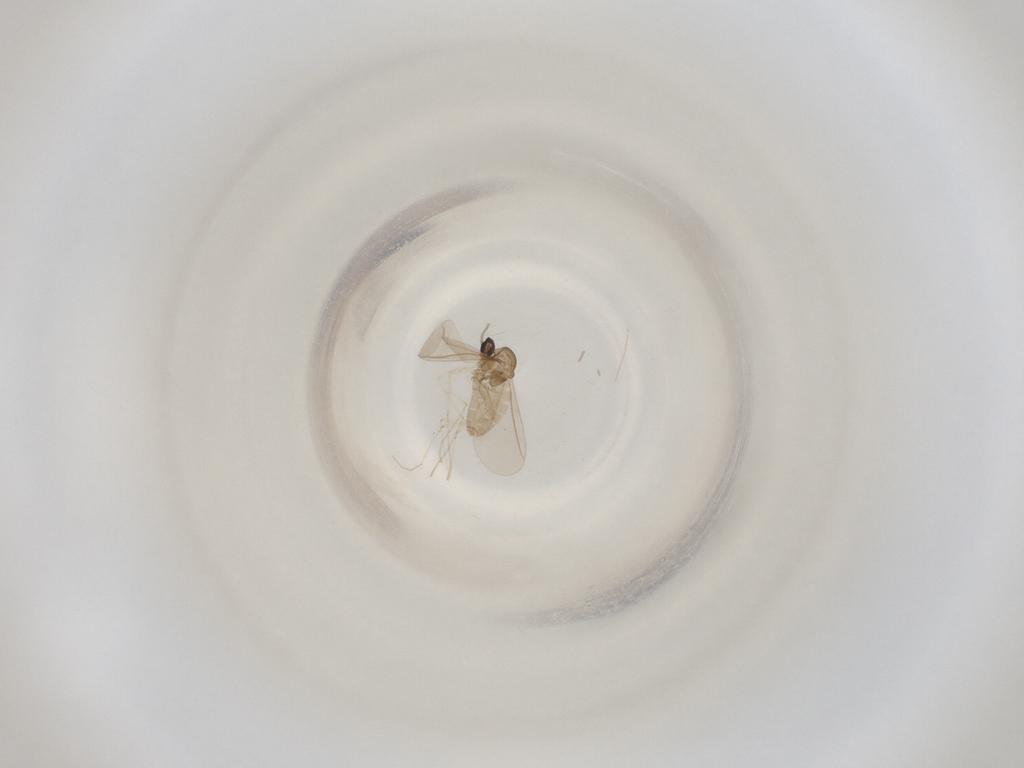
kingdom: Animalia
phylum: Arthropoda
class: Insecta
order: Diptera
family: Cecidomyiidae
